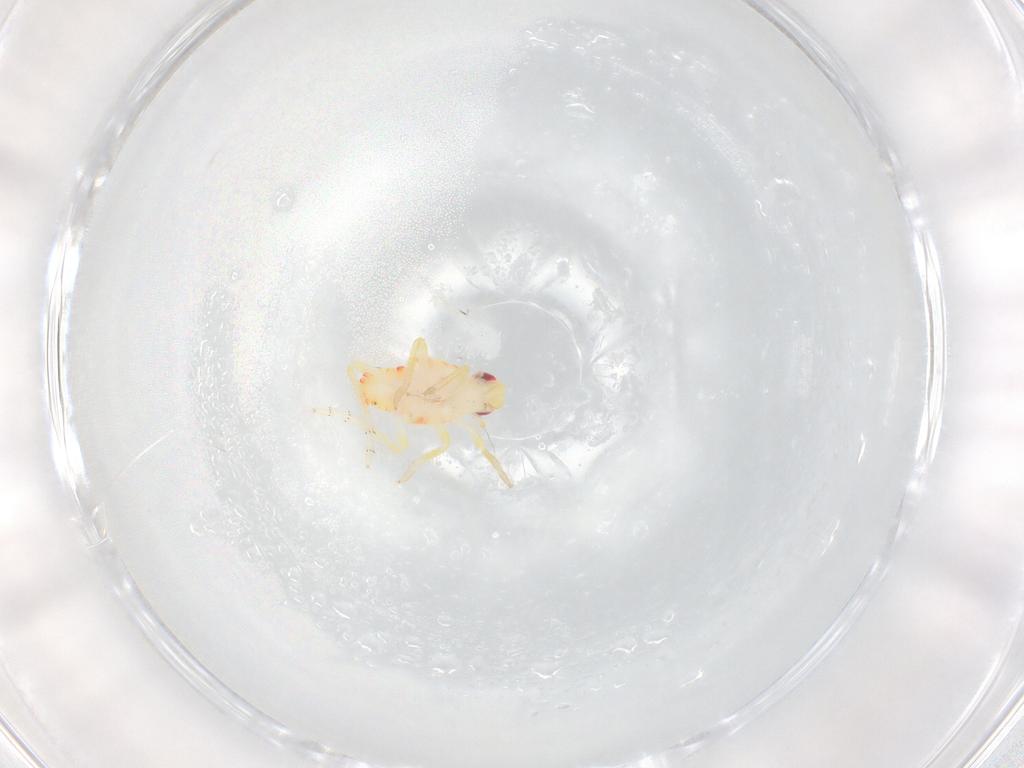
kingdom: Animalia
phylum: Arthropoda
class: Insecta
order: Hemiptera
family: Tropiduchidae
